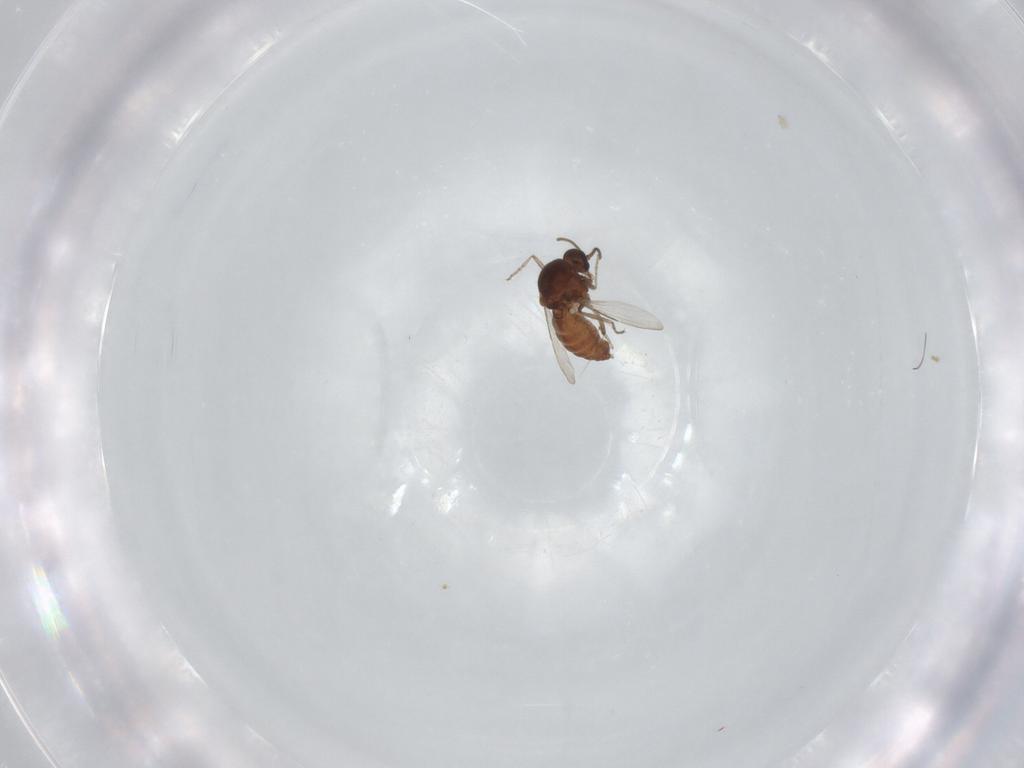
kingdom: Animalia
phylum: Arthropoda
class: Insecta
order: Diptera
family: Ceratopogonidae
